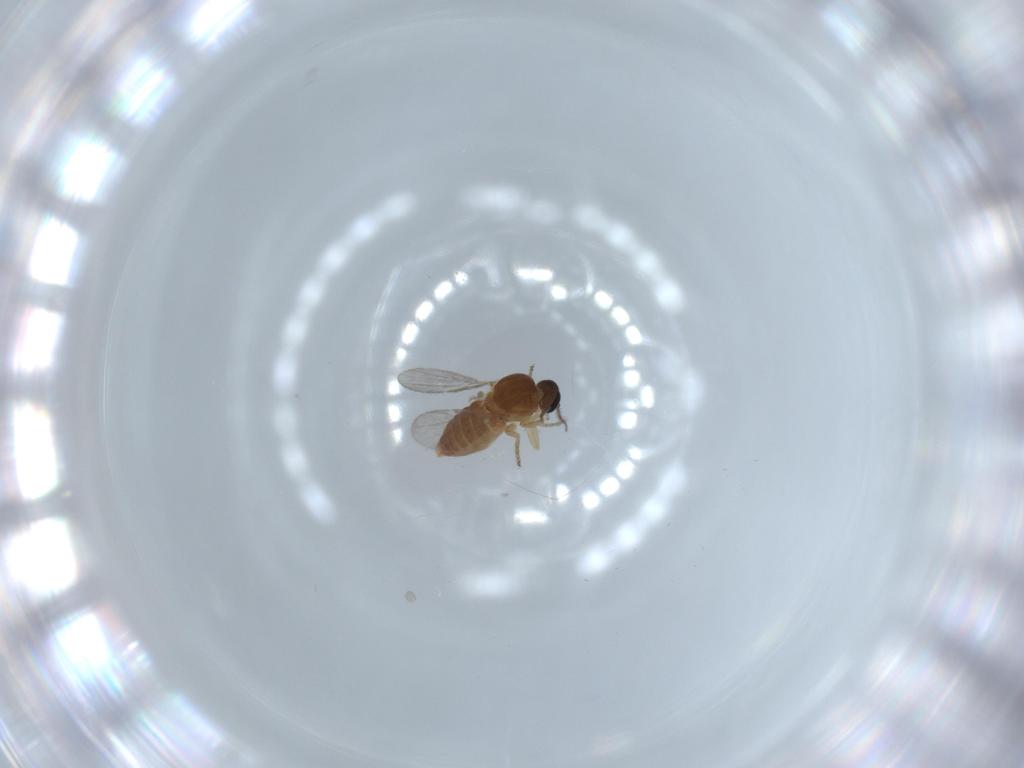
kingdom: Animalia
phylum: Arthropoda
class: Insecta
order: Diptera
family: Ceratopogonidae
